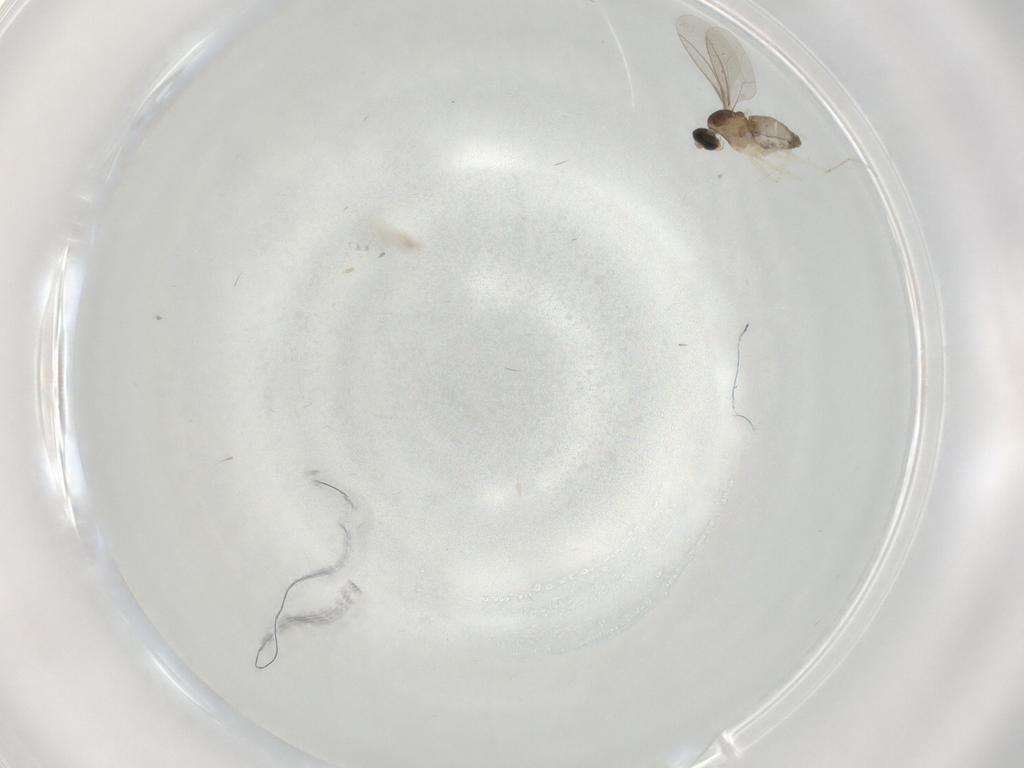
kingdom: Animalia
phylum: Arthropoda
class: Insecta
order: Diptera
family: Cecidomyiidae
